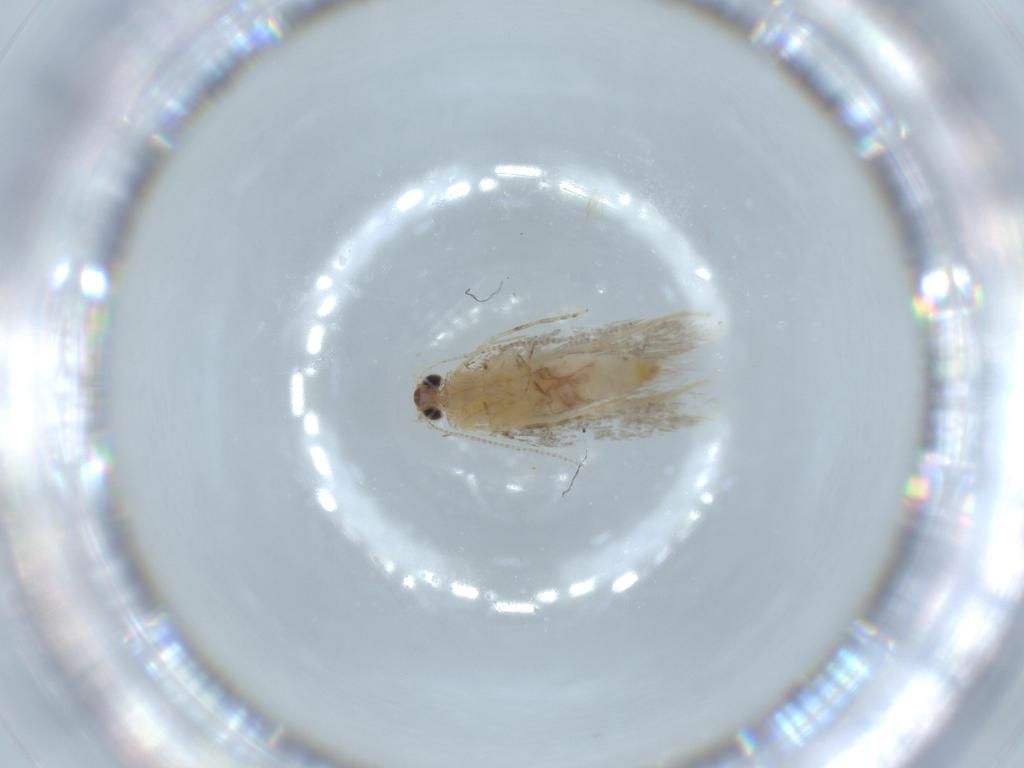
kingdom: Animalia
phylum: Arthropoda
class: Insecta
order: Lepidoptera
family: Tineidae
